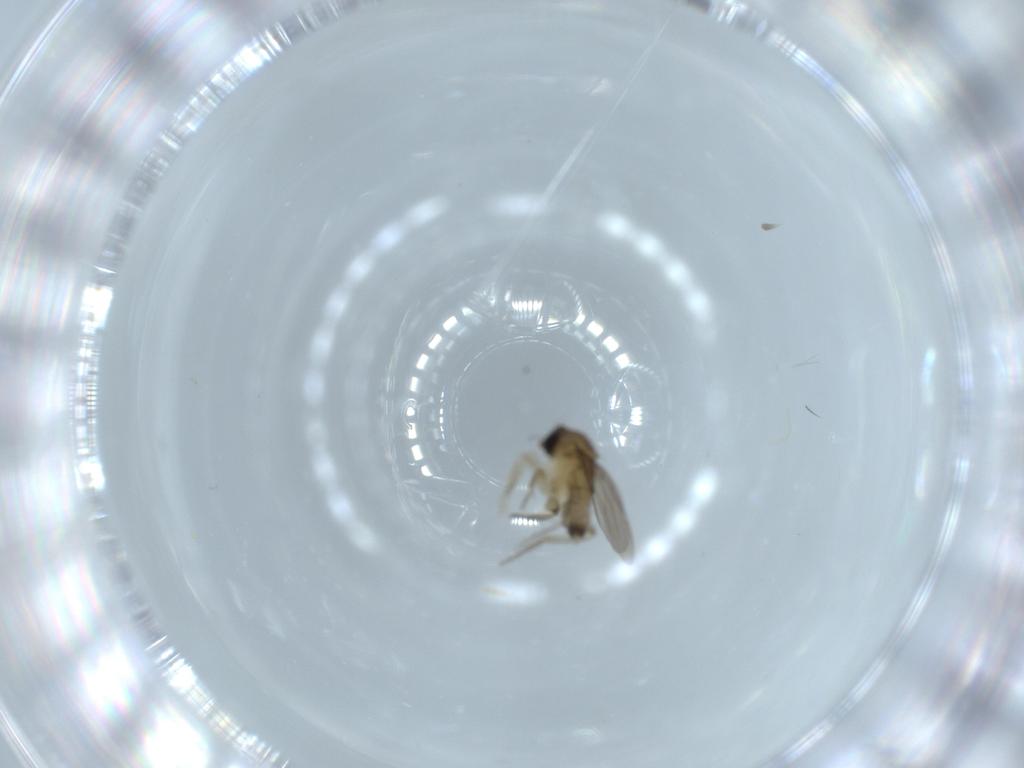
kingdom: Animalia
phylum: Arthropoda
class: Insecta
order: Diptera
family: Phoridae
